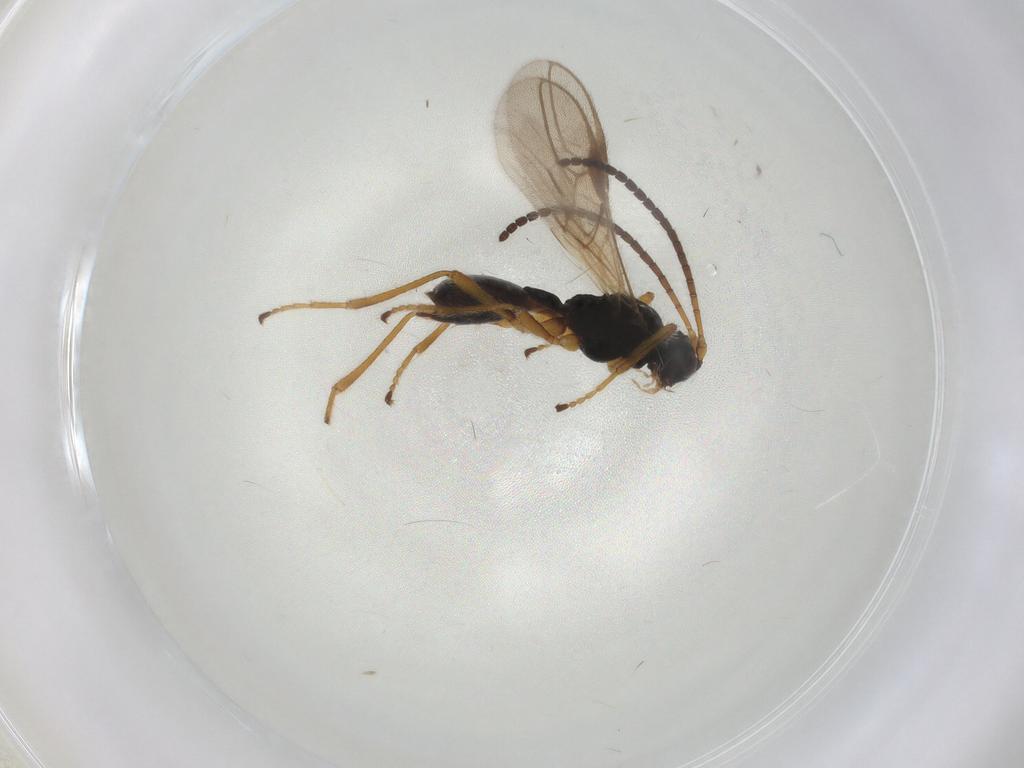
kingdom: Animalia
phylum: Arthropoda
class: Insecta
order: Hymenoptera
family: Braconidae
